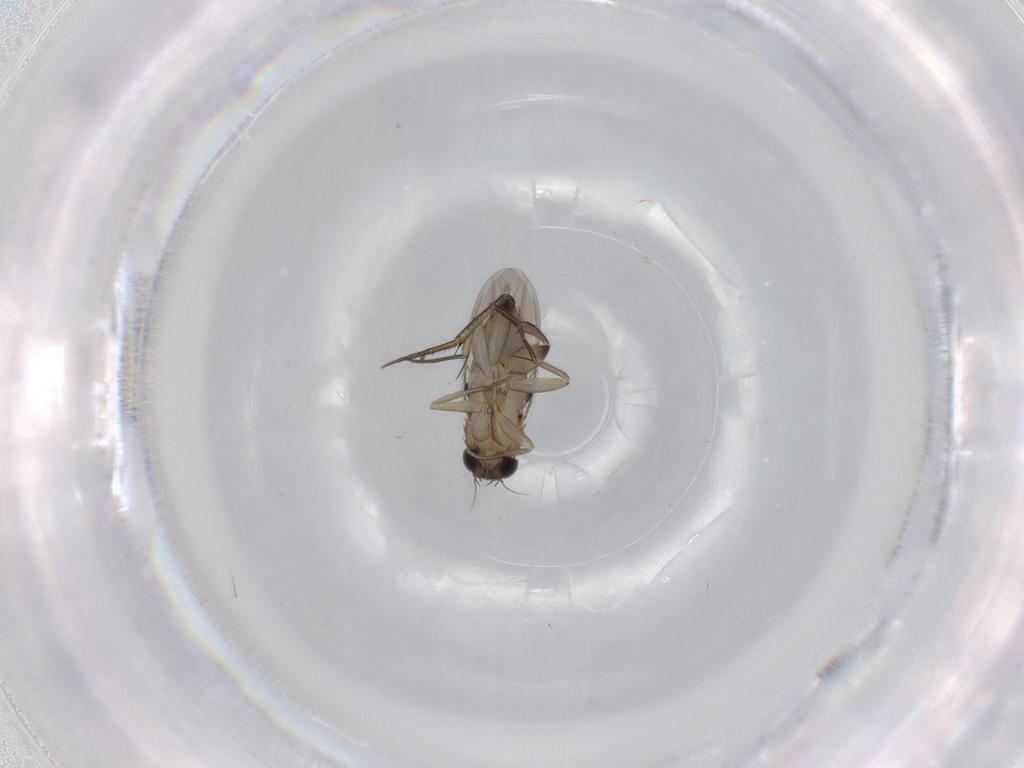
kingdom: Animalia
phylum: Arthropoda
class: Insecta
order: Diptera
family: Phoridae
